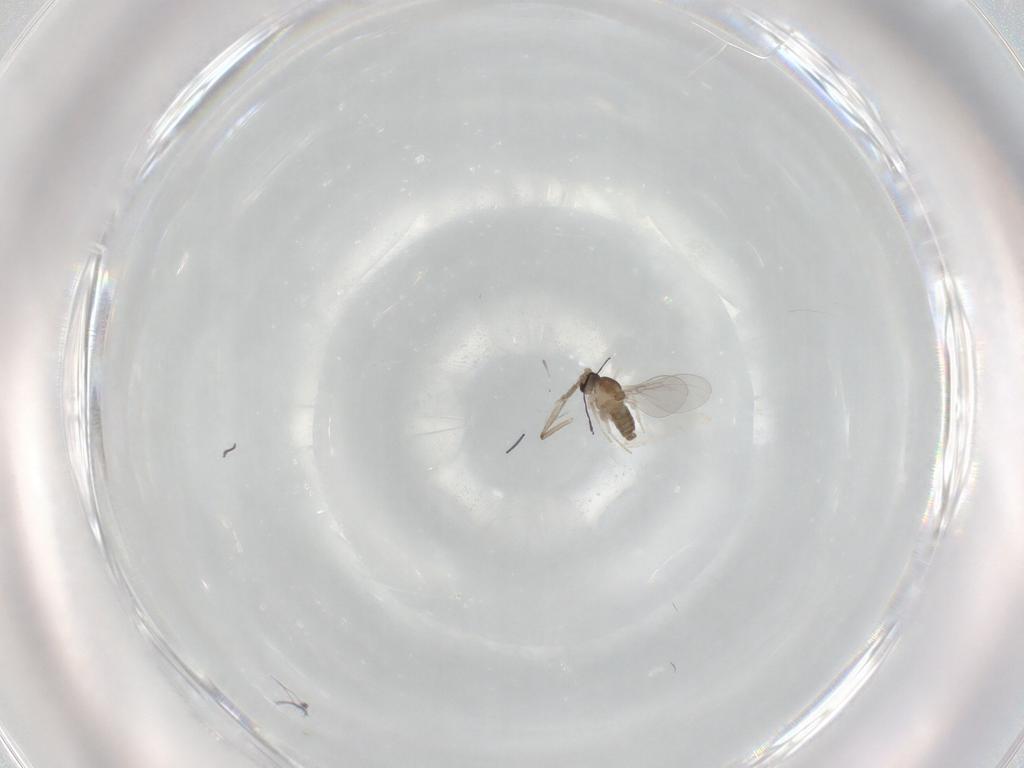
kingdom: Animalia
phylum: Arthropoda
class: Insecta
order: Diptera
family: Cecidomyiidae
